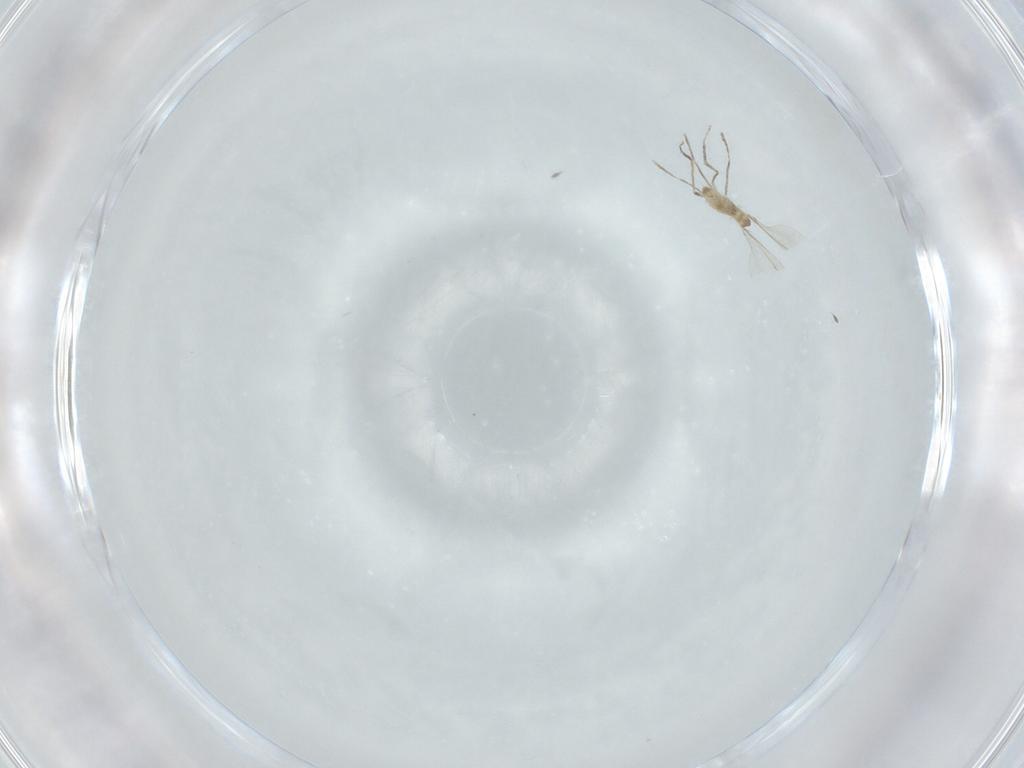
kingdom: Animalia
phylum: Arthropoda
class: Insecta
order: Diptera
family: Cecidomyiidae
